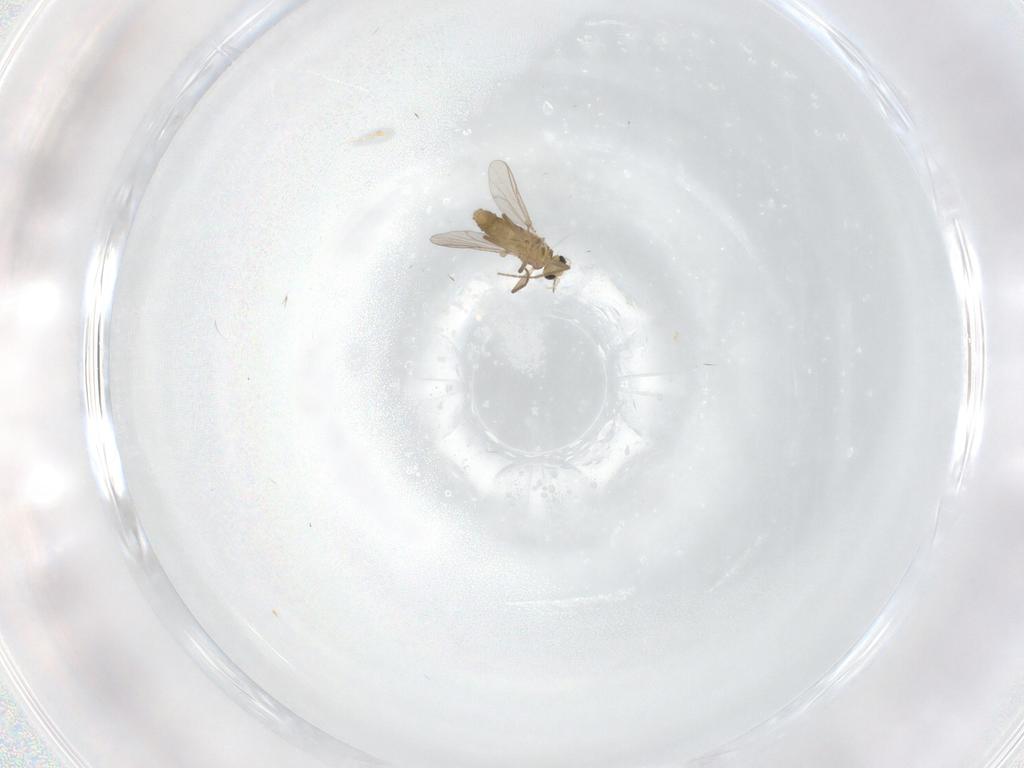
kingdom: Animalia
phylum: Arthropoda
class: Insecta
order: Diptera
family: Chironomidae
